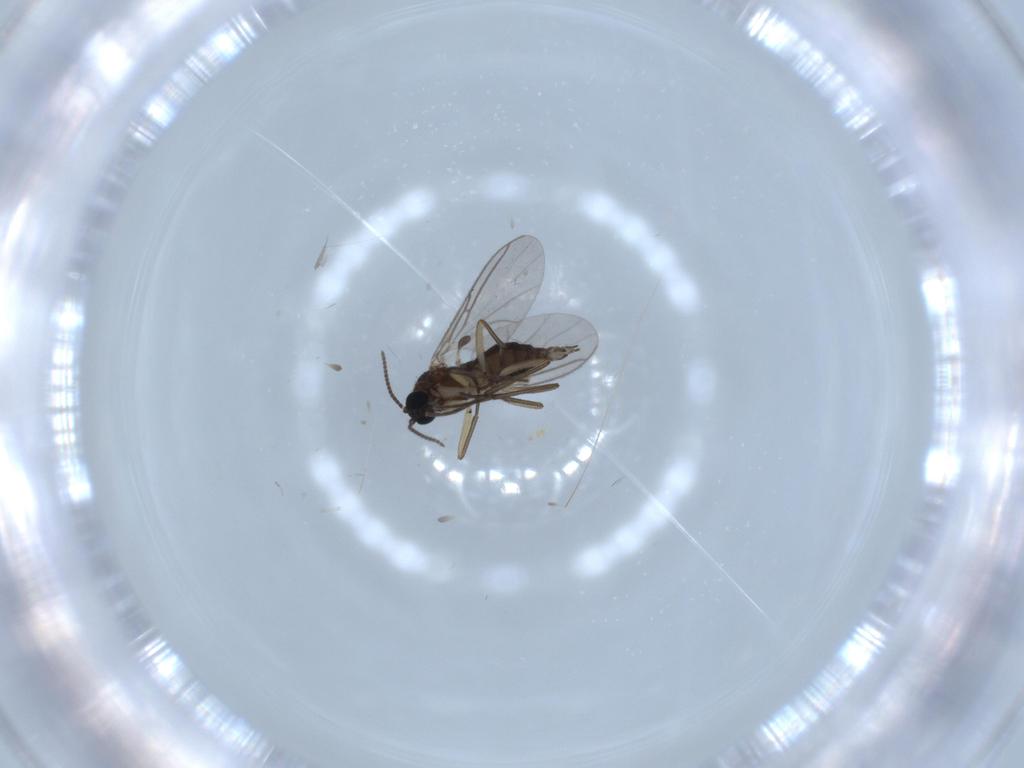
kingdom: Animalia
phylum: Arthropoda
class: Insecta
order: Diptera
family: Sciaridae
